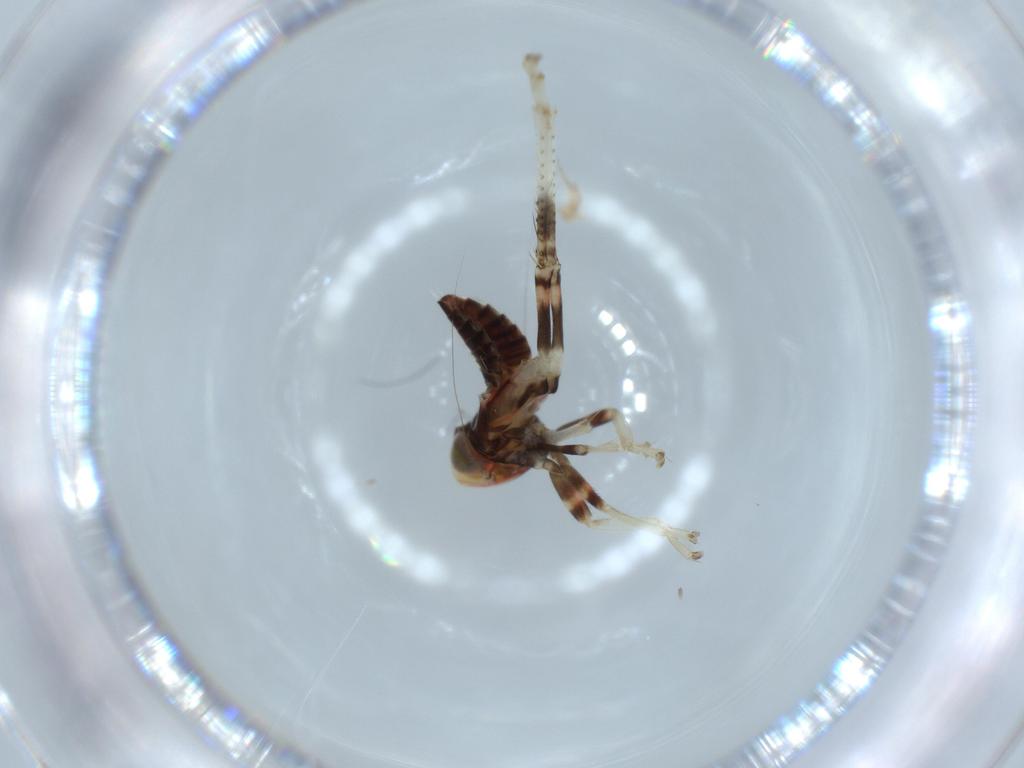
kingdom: Animalia
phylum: Arthropoda
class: Insecta
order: Hemiptera
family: Cicadellidae
